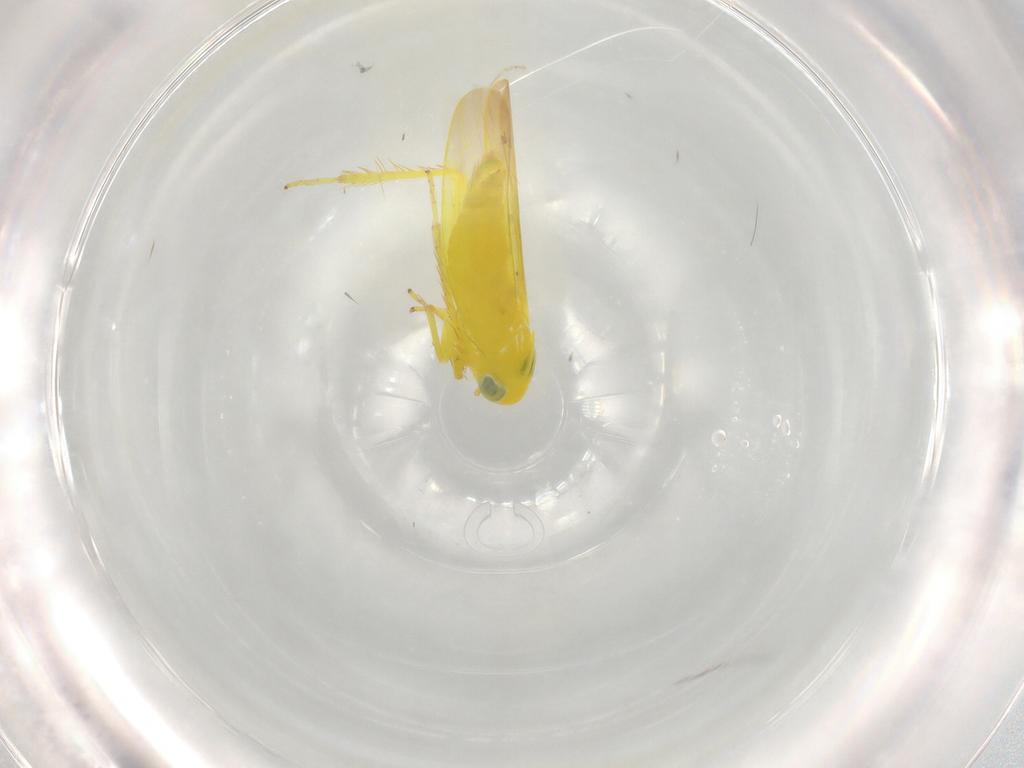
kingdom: Animalia
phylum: Arthropoda
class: Insecta
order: Hemiptera
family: Cicadellidae
